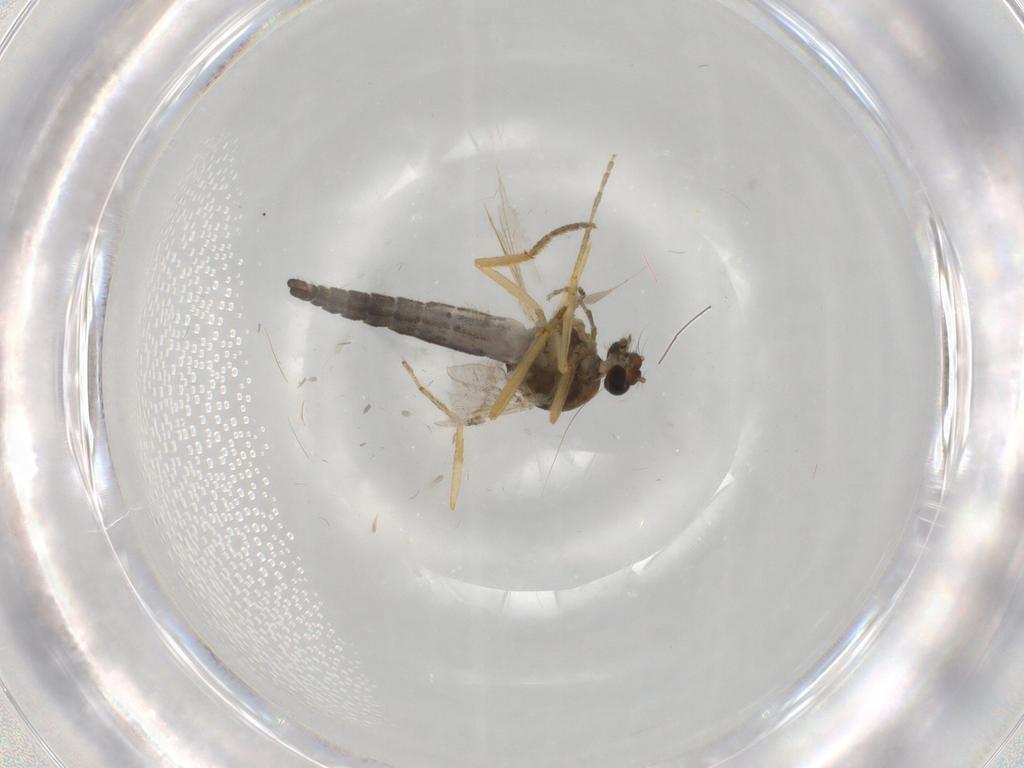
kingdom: Animalia
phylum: Arthropoda
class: Insecta
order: Diptera
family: Ceratopogonidae
